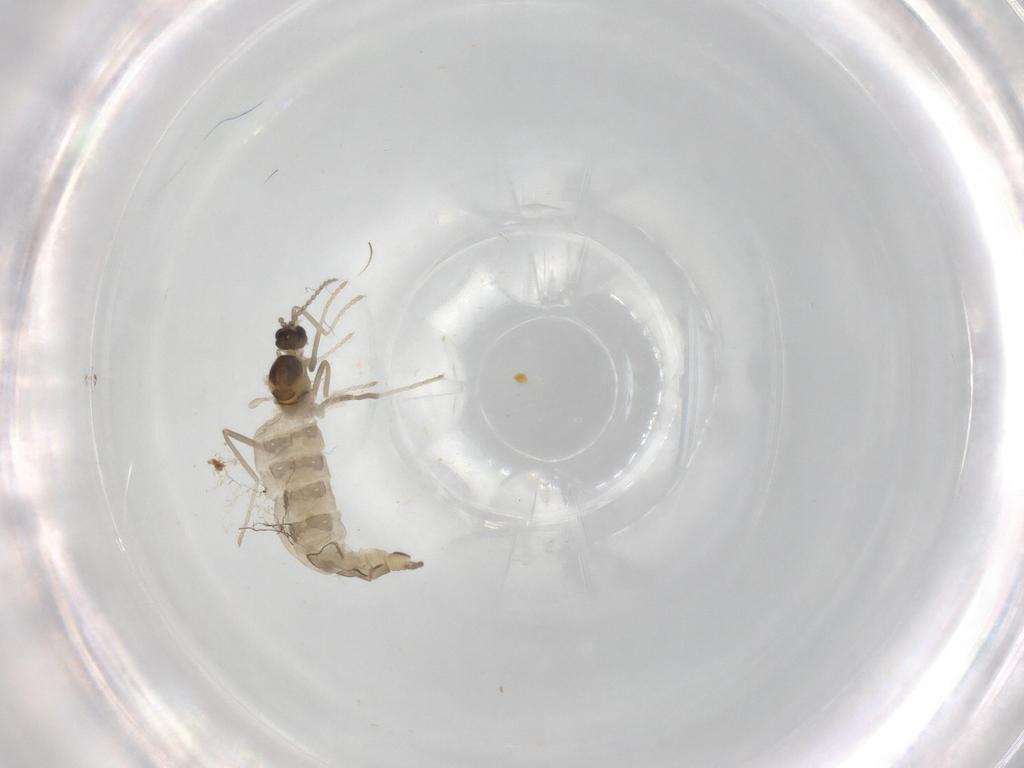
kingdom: Animalia
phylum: Arthropoda
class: Insecta
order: Diptera
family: Cecidomyiidae
